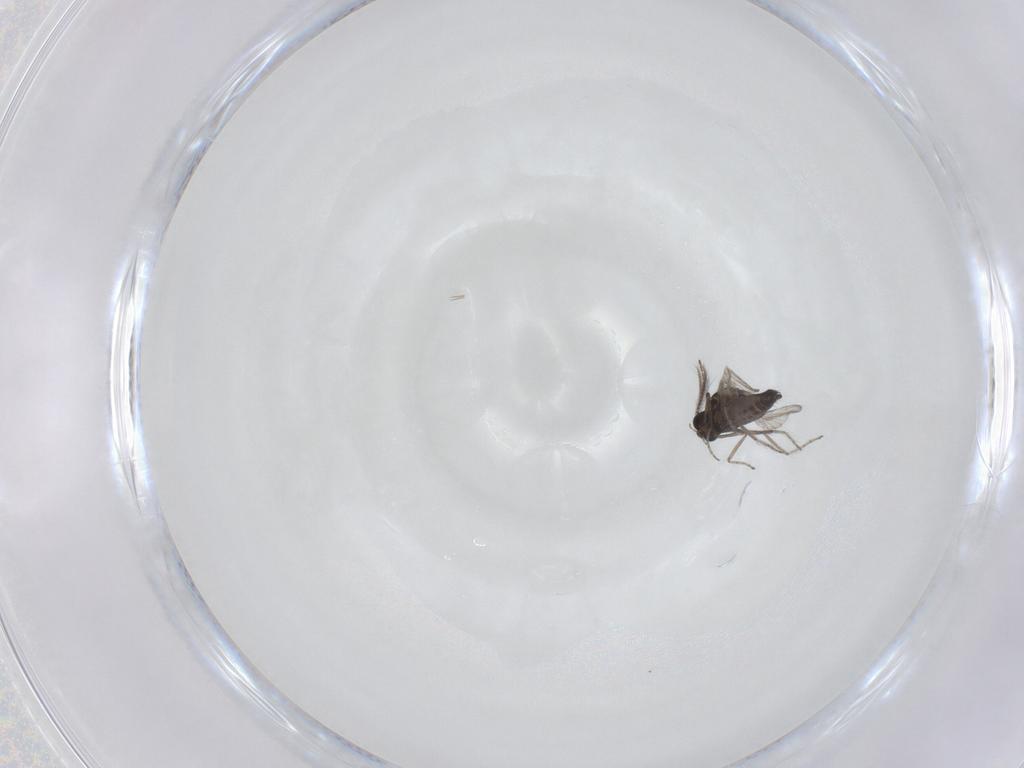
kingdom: Animalia
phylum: Arthropoda
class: Insecta
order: Diptera
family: Ceratopogonidae
